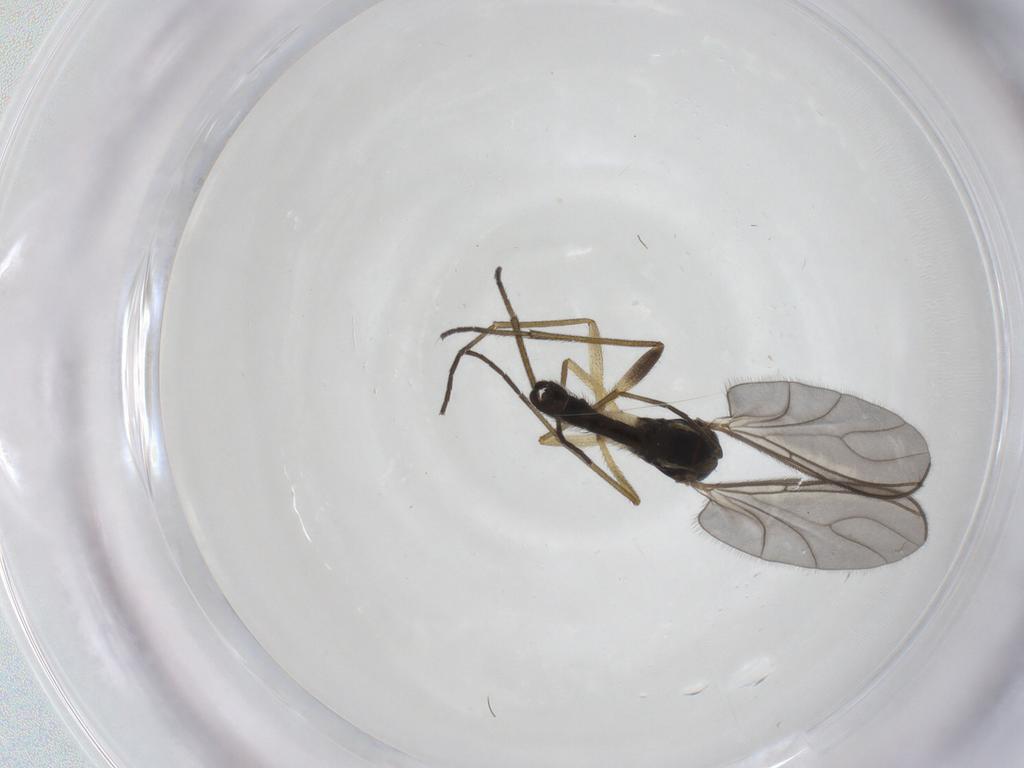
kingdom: Animalia
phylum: Arthropoda
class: Insecta
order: Diptera
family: Sciaridae
